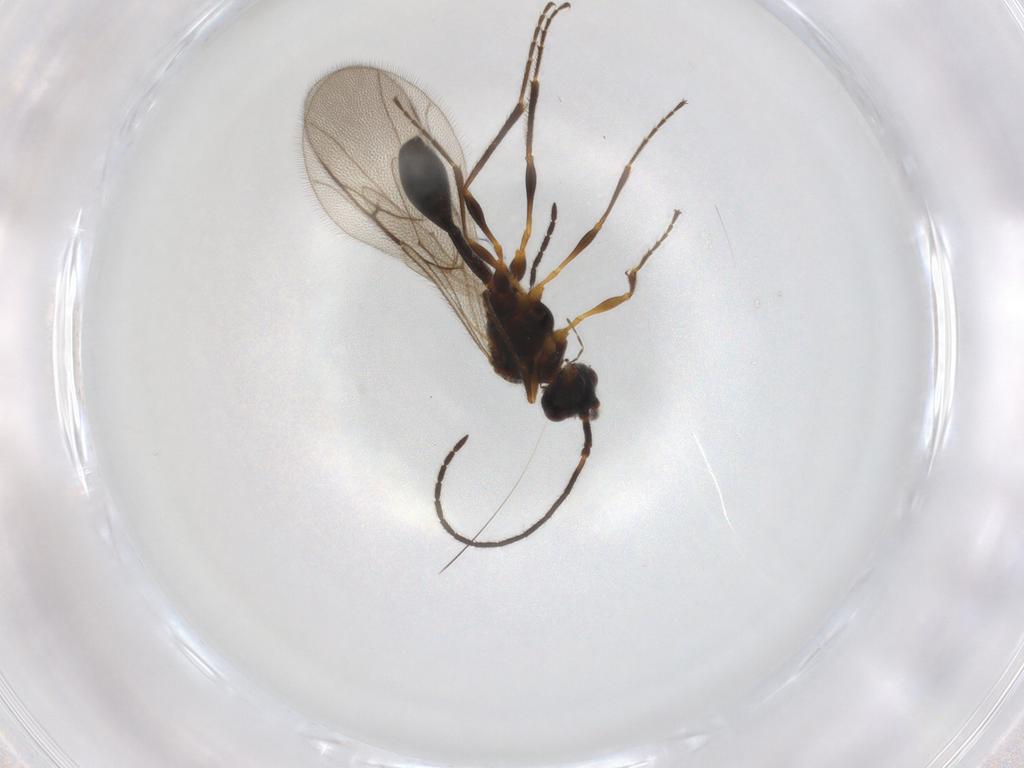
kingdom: Animalia
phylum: Arthropoda
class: Insecta
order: Hymenoptera
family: Diapriidae
